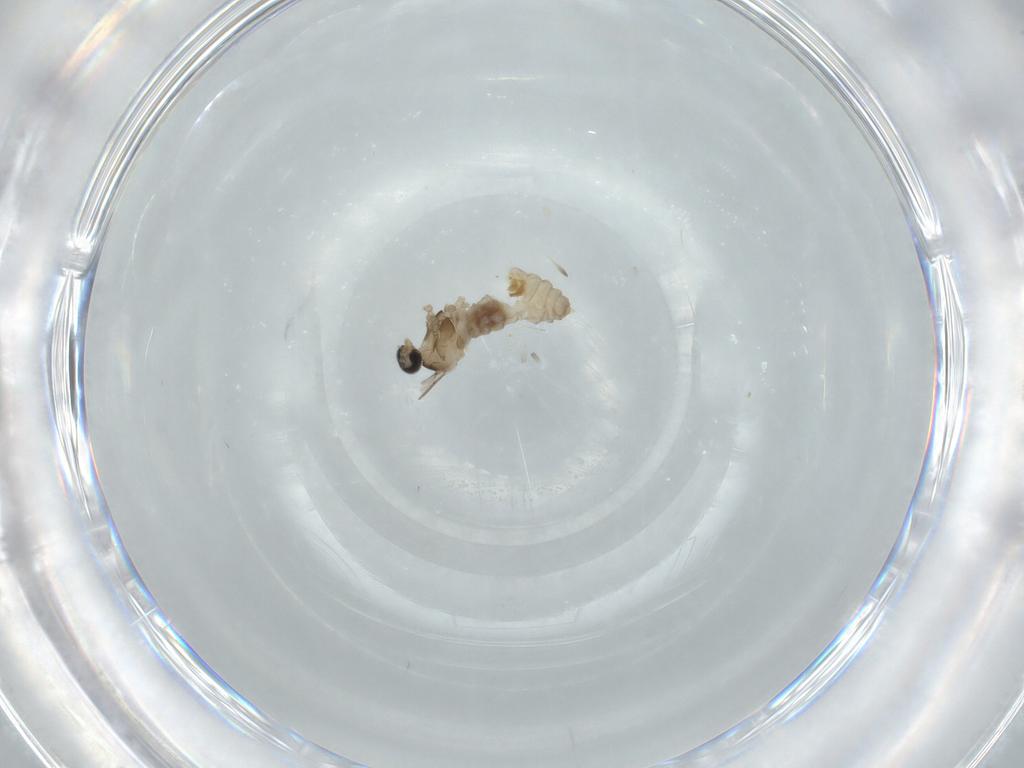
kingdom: Animalia
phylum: Arthropoda
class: Insecta
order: Diptera
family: Cecidomyiidae
